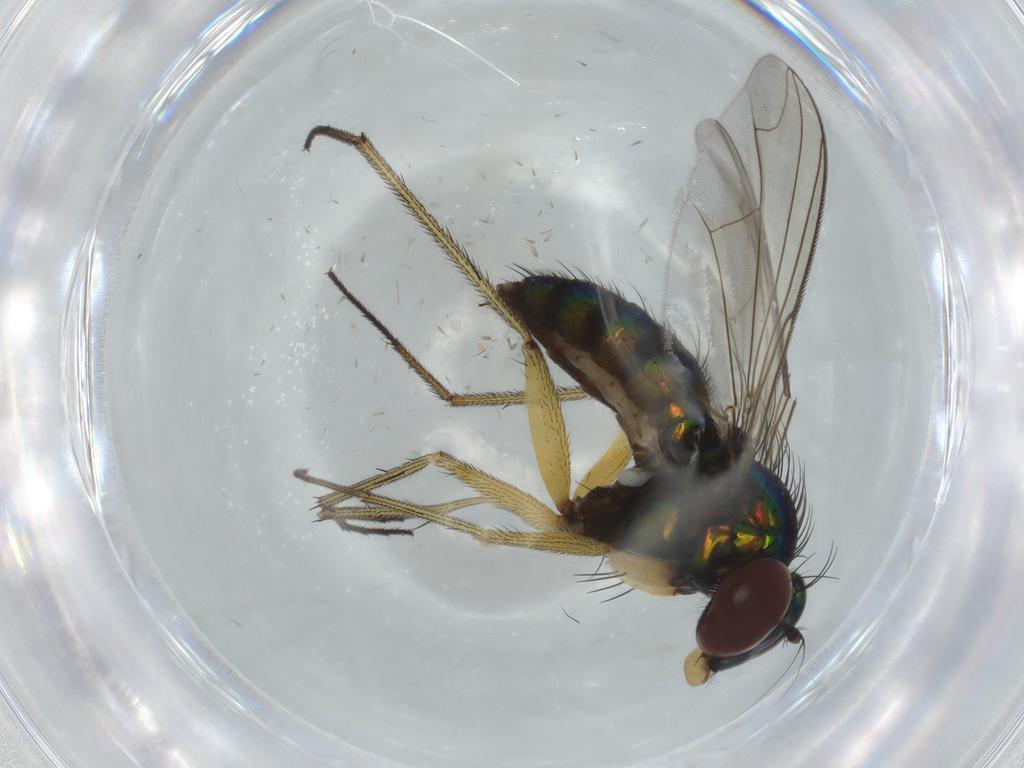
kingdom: Animalia
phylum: Arthropoda
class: Insecta
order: Diptera
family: Dolichopodidae
